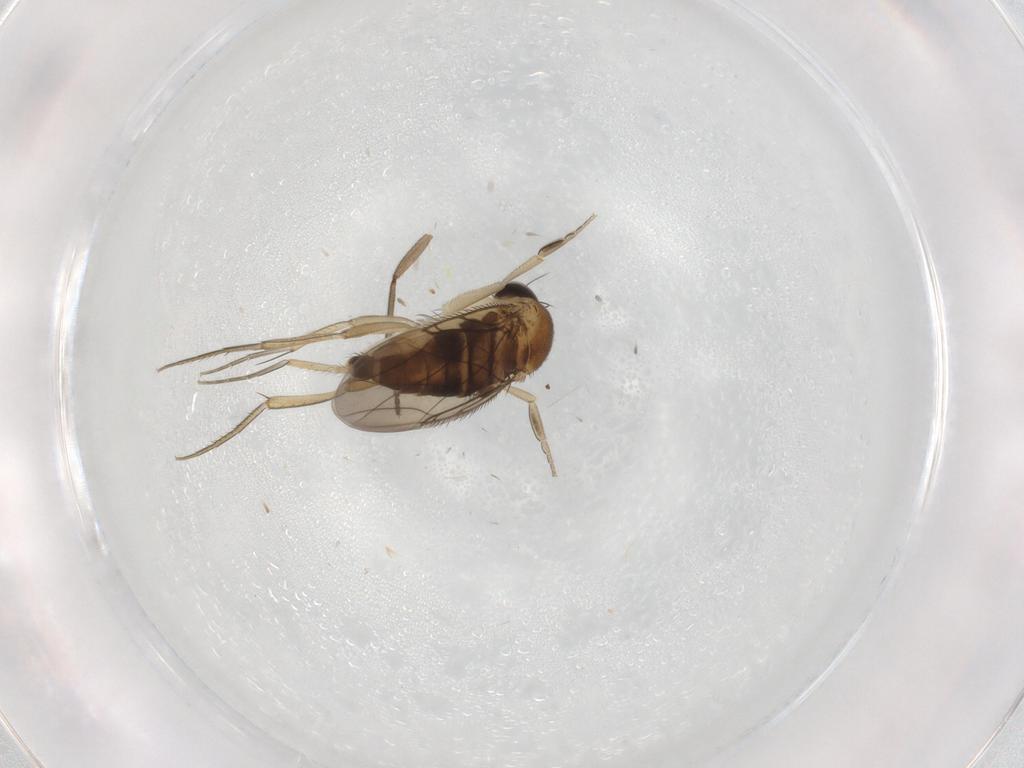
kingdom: Animalia
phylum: Arthropoda
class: Insecta
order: Diptera
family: Phoridae
